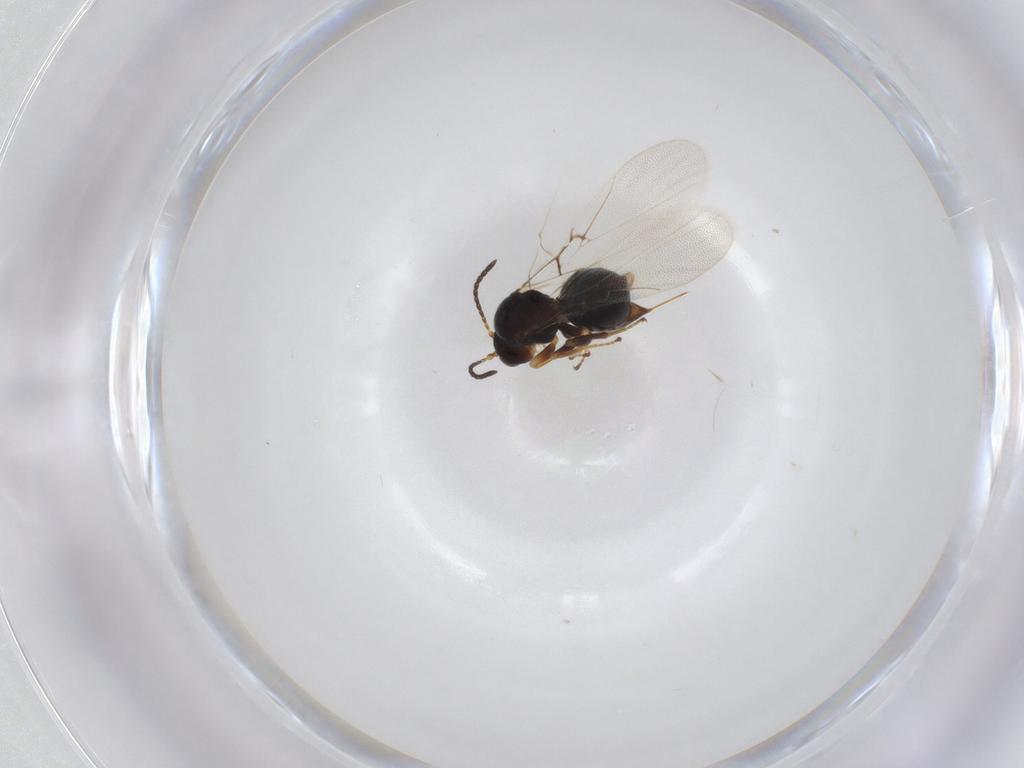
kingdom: Animalia
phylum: Arthropoda
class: Insecta
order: Hymenoptera
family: Cynipidae
